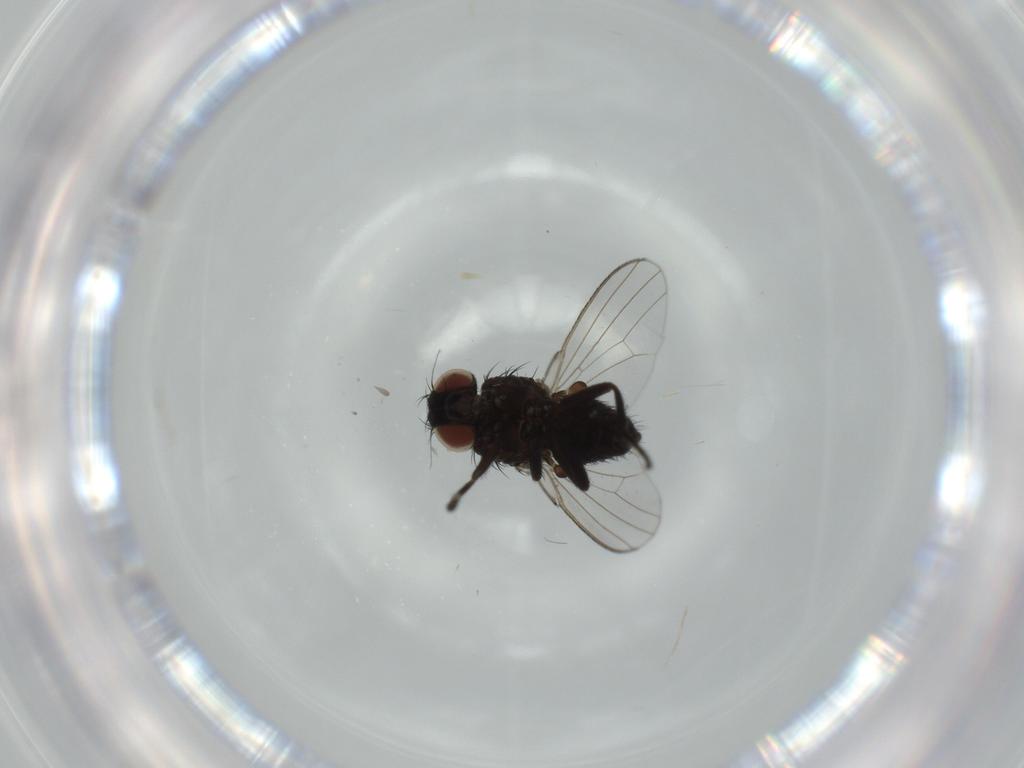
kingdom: Animalia
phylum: Arthropoda
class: Insecta
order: Diptera
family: Milichiidae
